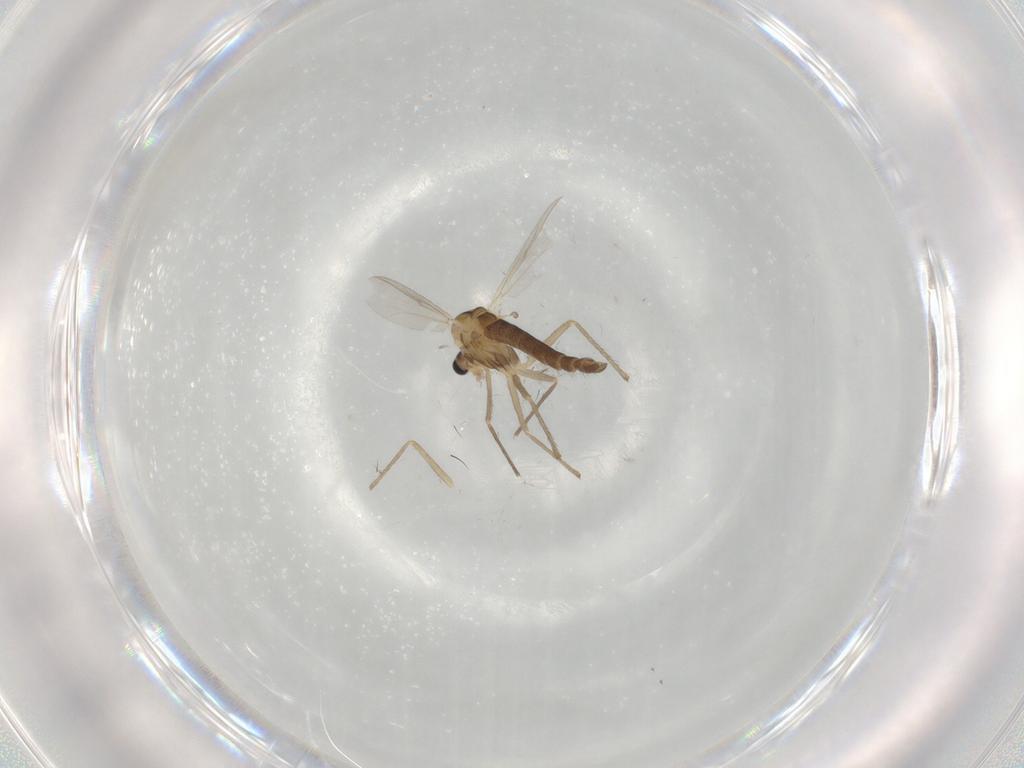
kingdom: Animalia
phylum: Arthropoda
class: Insecta
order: Diptera
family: Chironomidae
